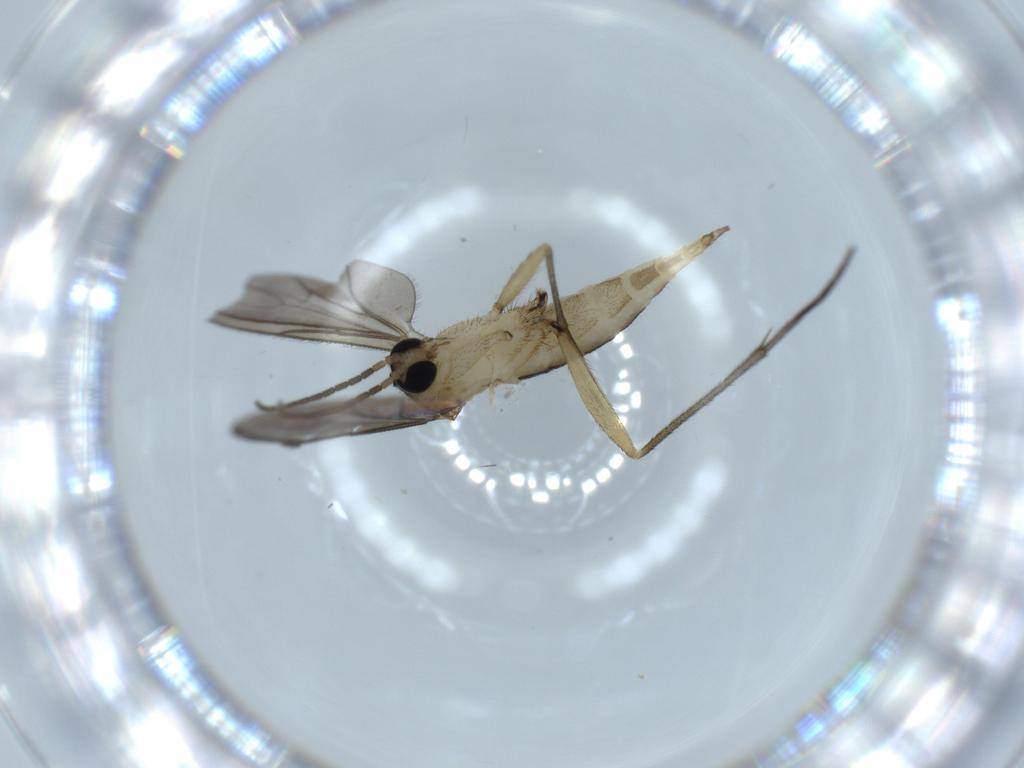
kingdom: Animalia
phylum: Arthropoda
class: Insecta
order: Diptera
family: Sciaridae
